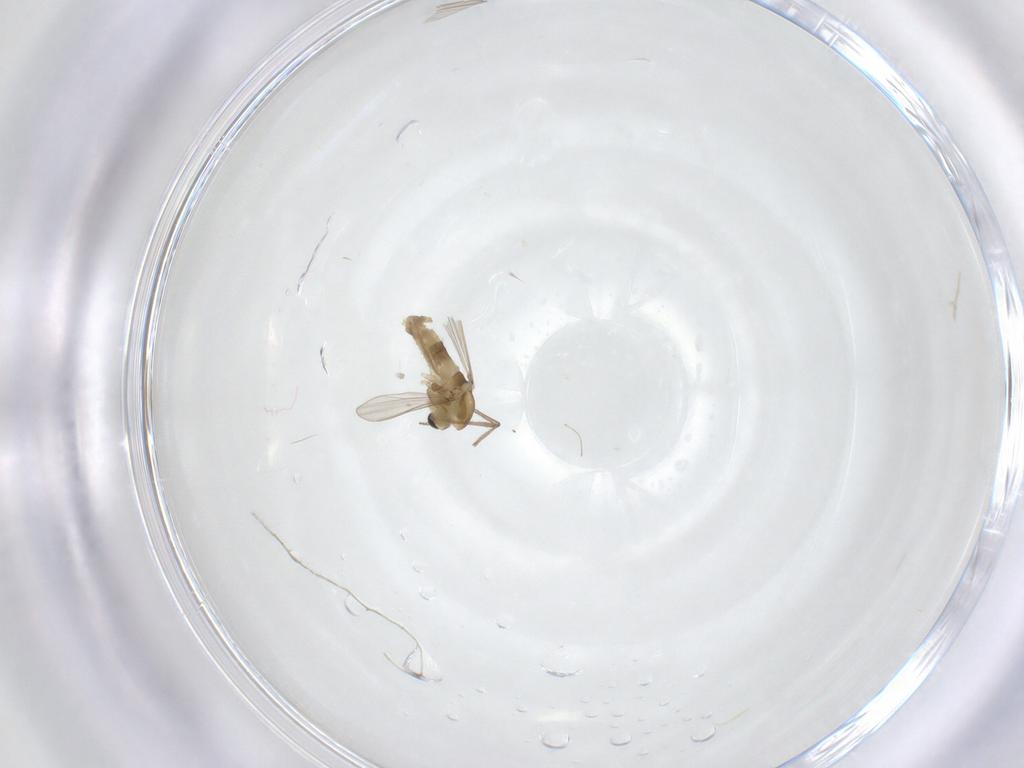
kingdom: Animalia
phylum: Arthropoda
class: Insecta
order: Diptera
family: Chironomidae
